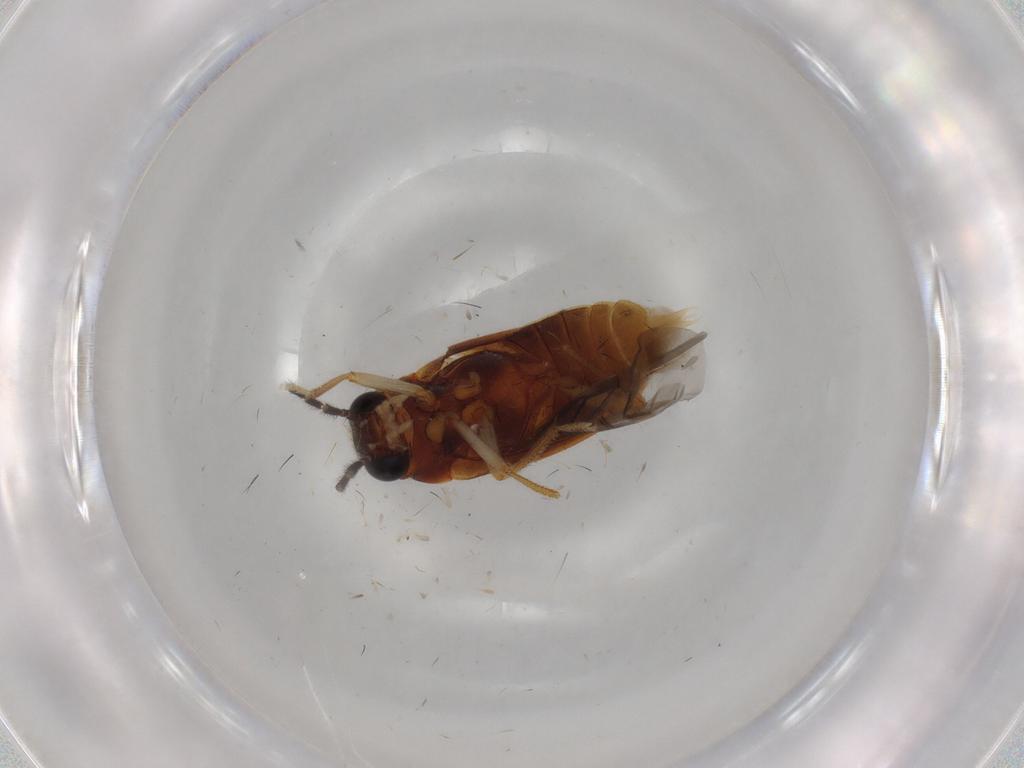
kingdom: Animalia
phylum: Arthropoda
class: Insecta
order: Coleoptera
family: Ptilodactylidae
